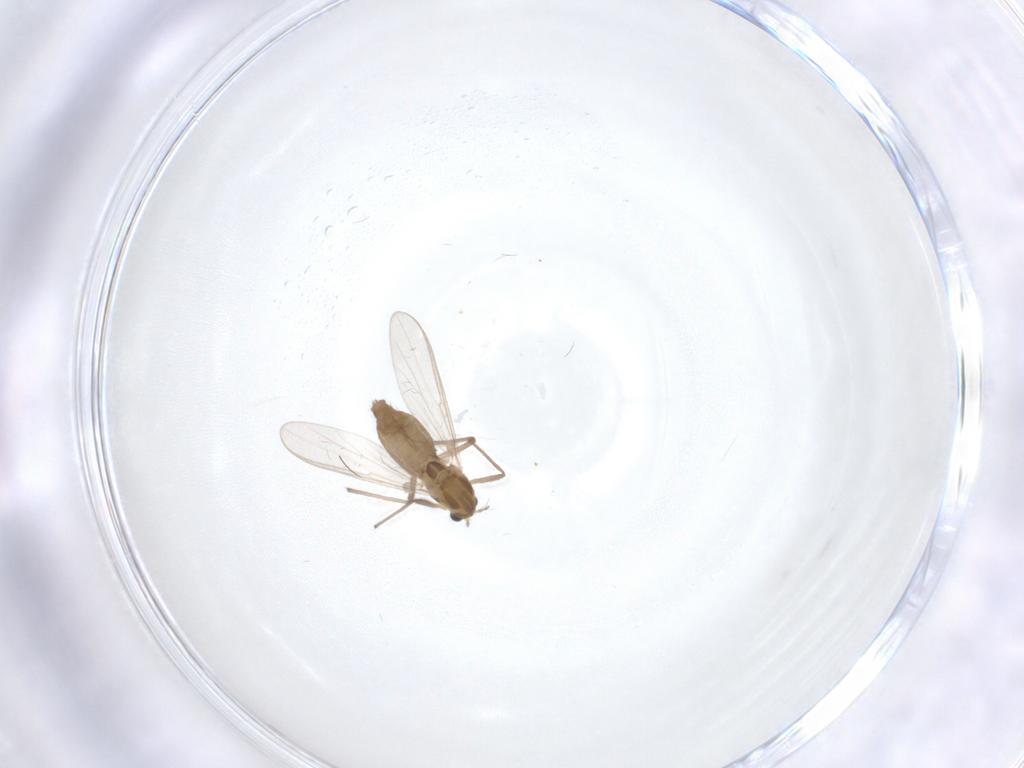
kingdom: Animalia
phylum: Arthropoda
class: Insecta
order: Diptera
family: Chironomidae
